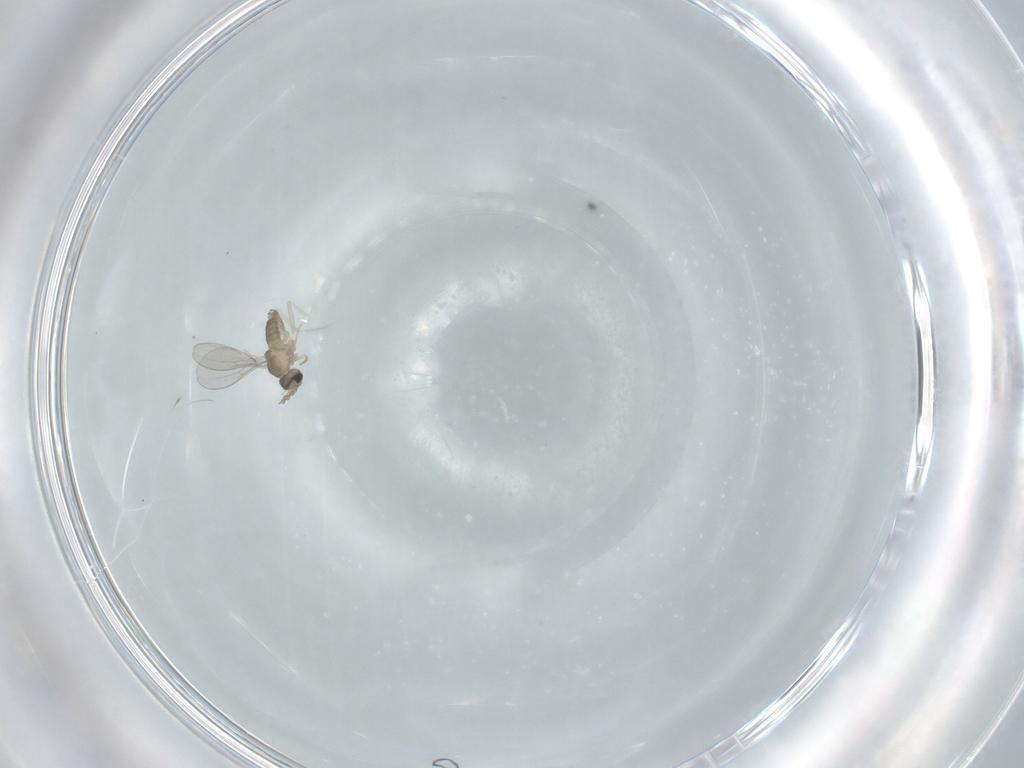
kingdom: Animalia
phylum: Arthropoda
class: Insecta
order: Diptera
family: Cecidomyiidae
